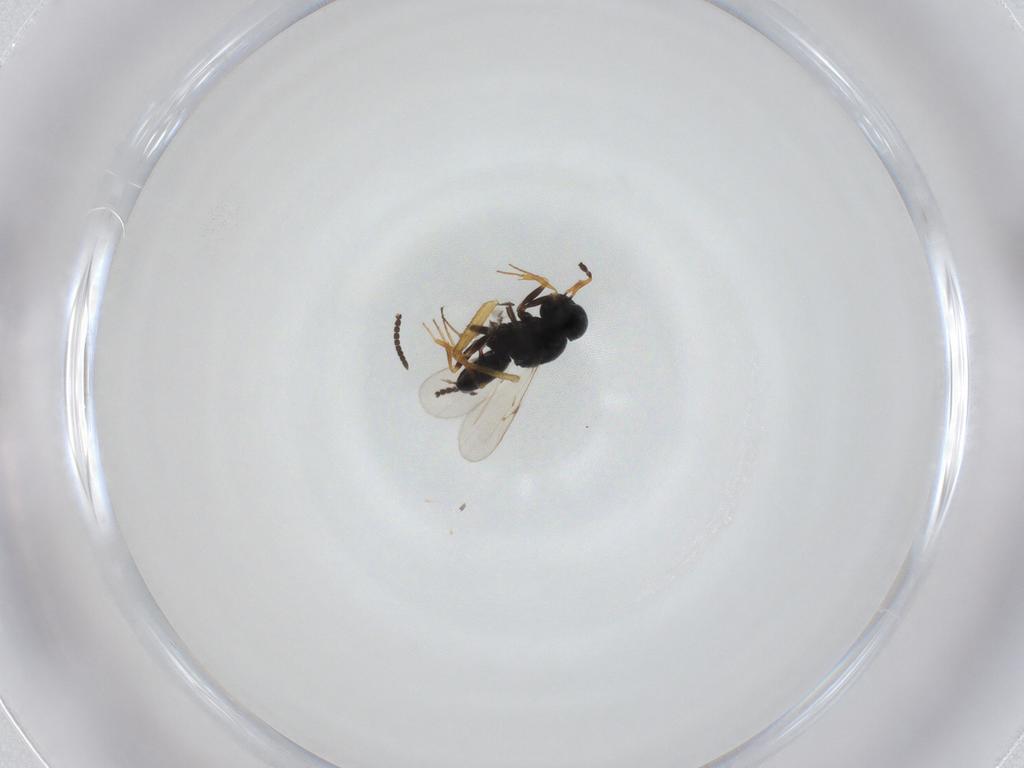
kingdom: Animalia
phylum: Arthropoda
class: Insecta
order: Hymenoptera
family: Scelionidae
